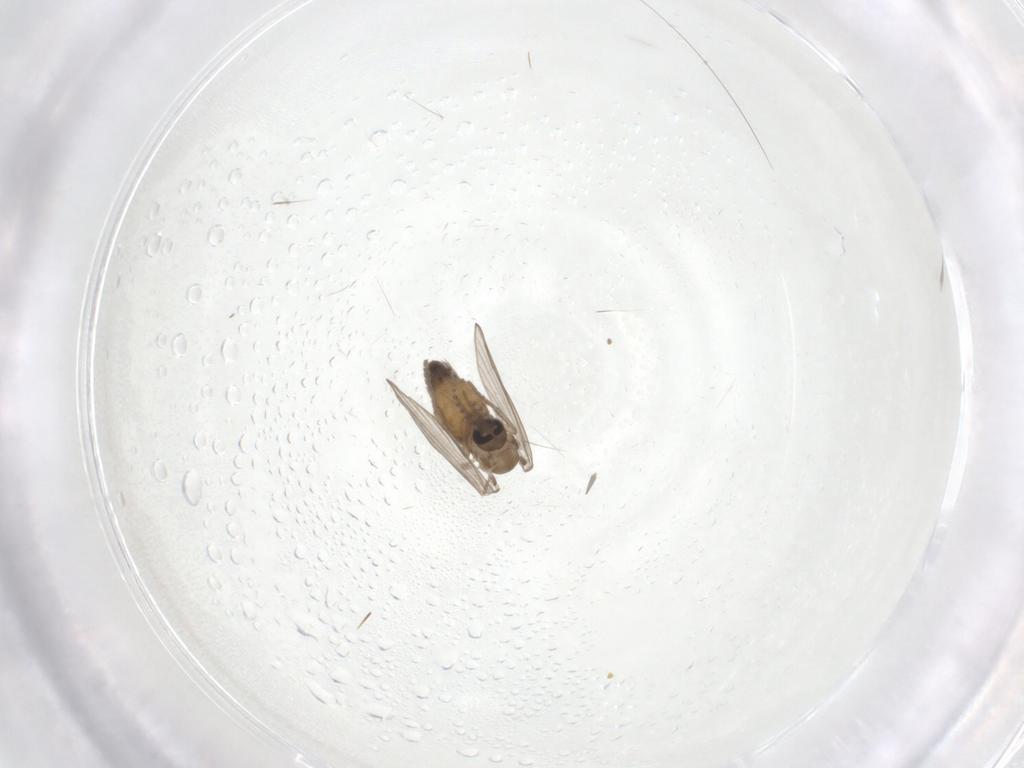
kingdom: Animalia
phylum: Arthropoda
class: Insecta
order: Diptera
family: Psychodidae
